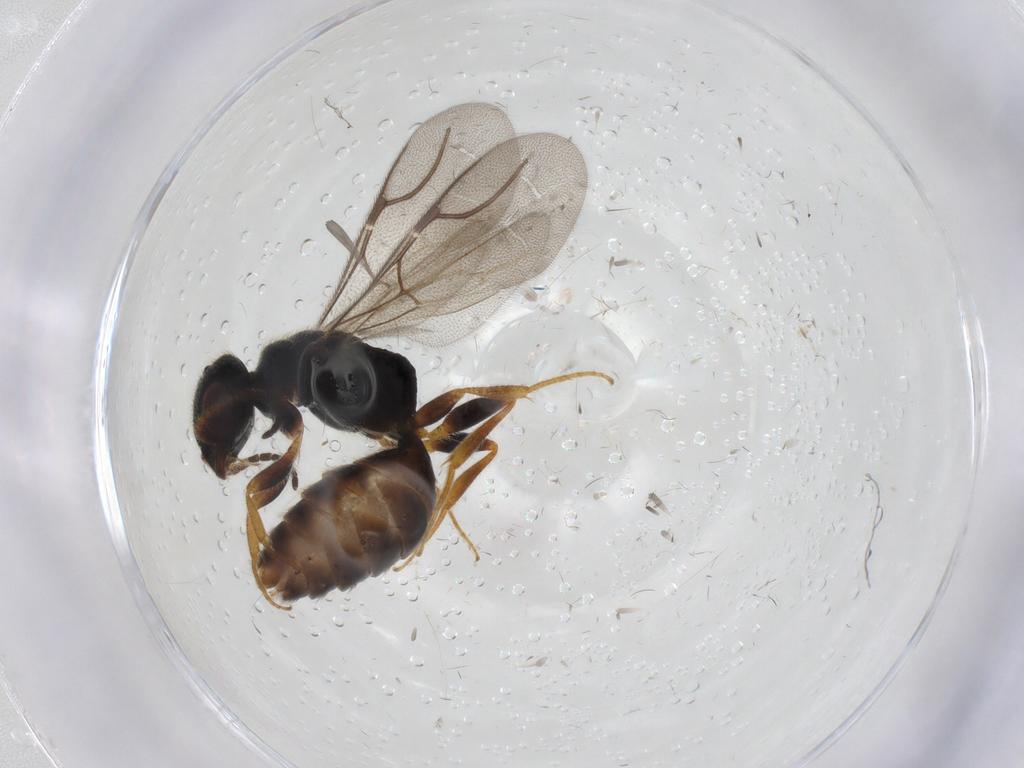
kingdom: Animalia
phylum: Arthropoda
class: Insecta
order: Hymenoptera
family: Bethylidae
